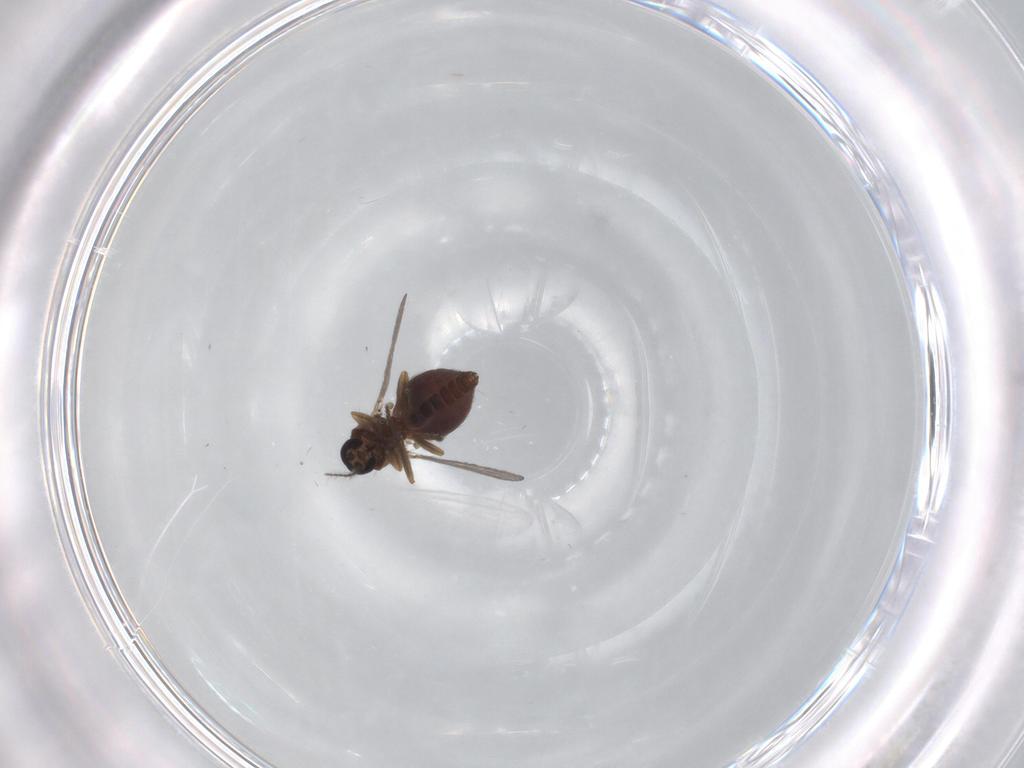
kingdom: Animalia
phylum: Arthropoda
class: Insecta
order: Diptera
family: Ceratopogonidae
